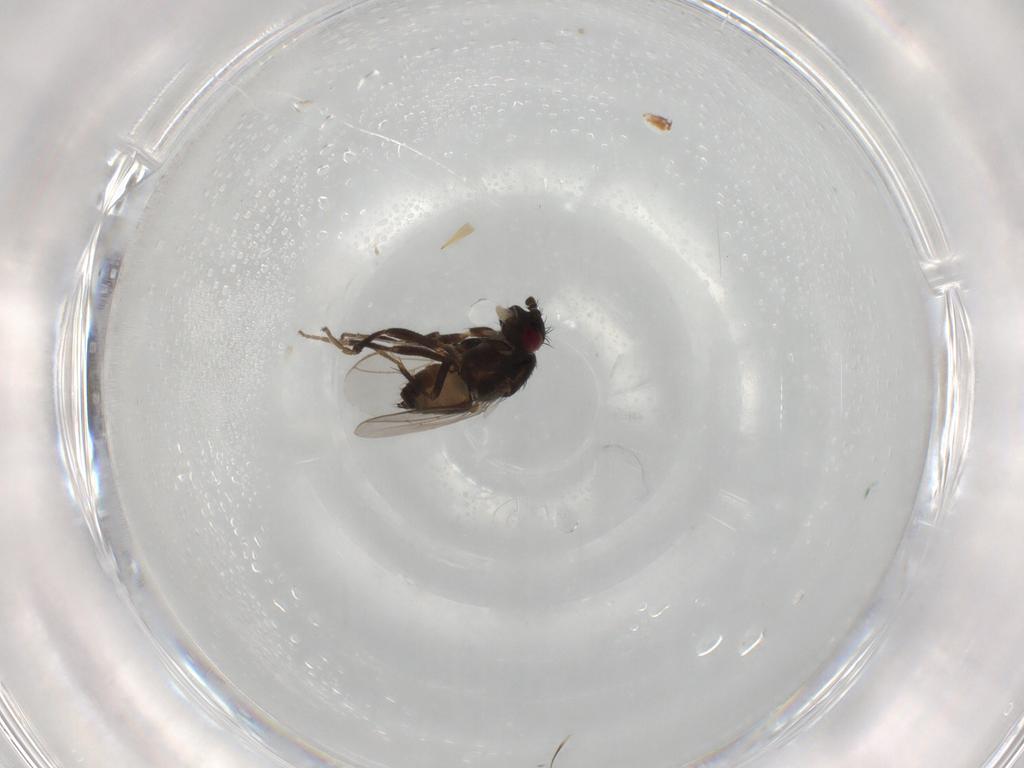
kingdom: Animalia
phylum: Arthropoda
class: Insecta
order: Diptera
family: Sphaeroceridae
